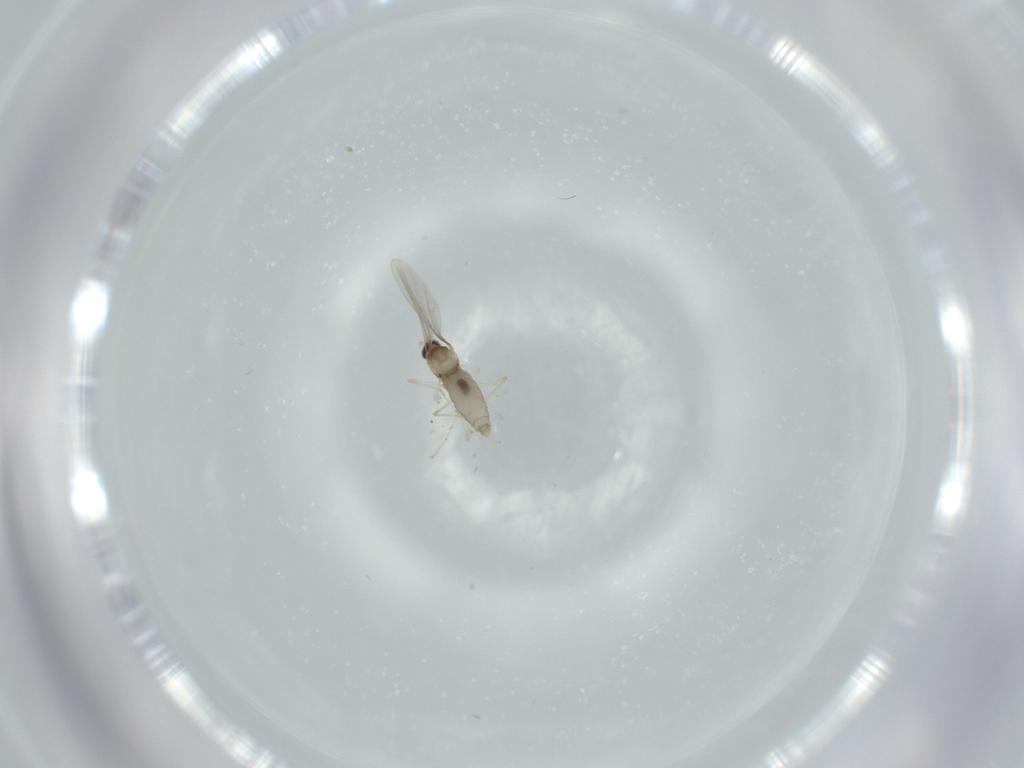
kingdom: Animalia
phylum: Arthropoda
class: Insecta
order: Diptera
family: Cecidomyiidae
